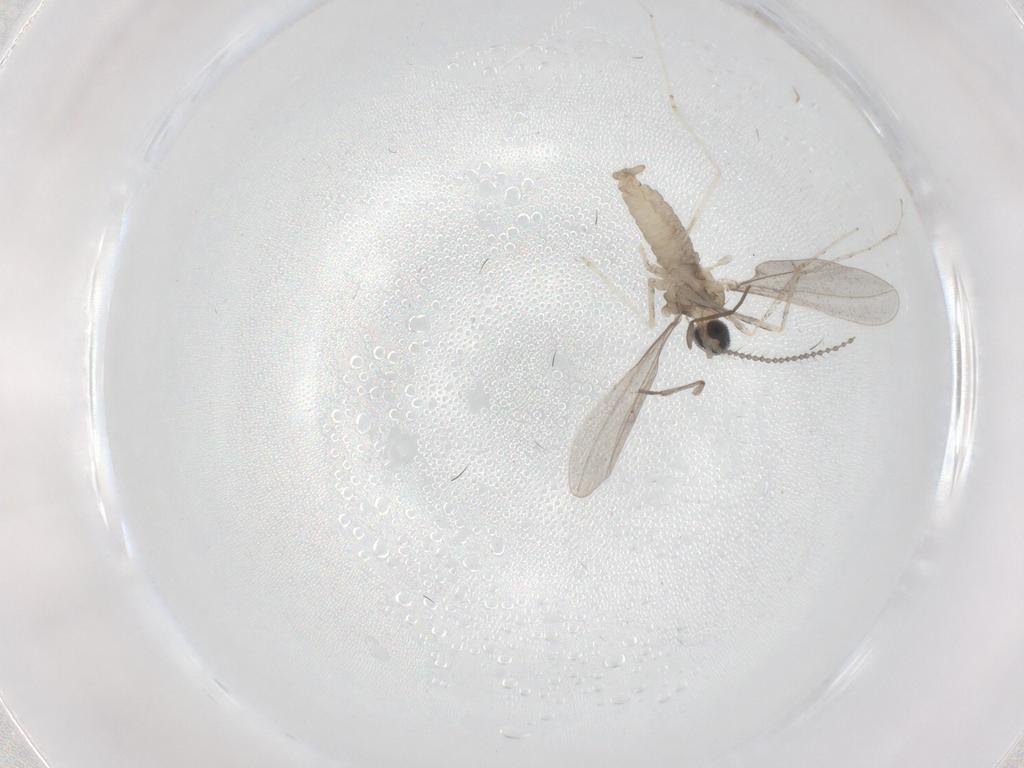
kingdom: Animalia
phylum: Arthropoda
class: Insecta
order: Diptera
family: Cecidomyiidae
